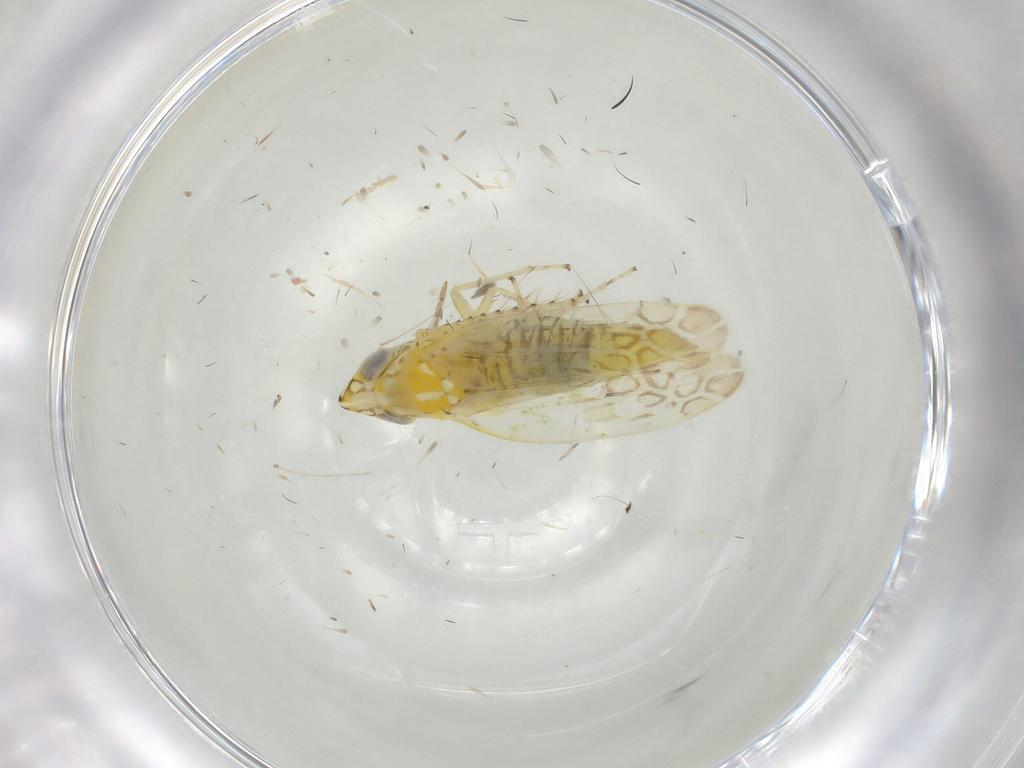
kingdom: Animalia
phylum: Arthropoda
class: Insecta
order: Hemiptera
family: Cicadellidae
